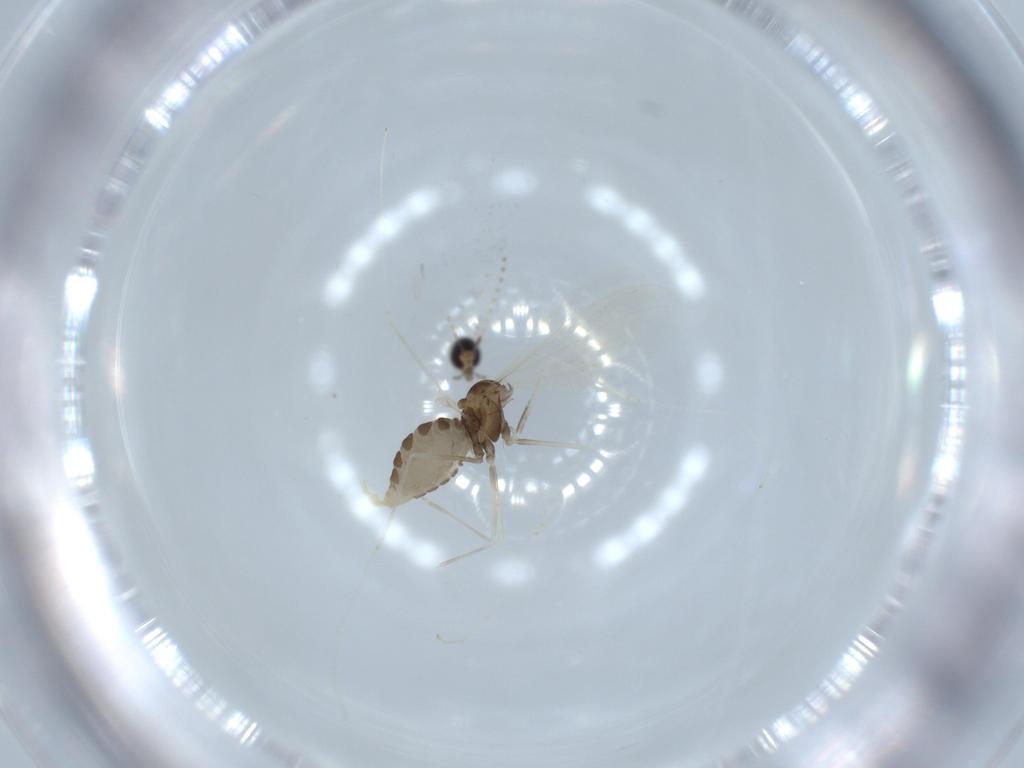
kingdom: Animalia
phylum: Arthropoda
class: Insecta
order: Diptera
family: Cecidomyiidae
